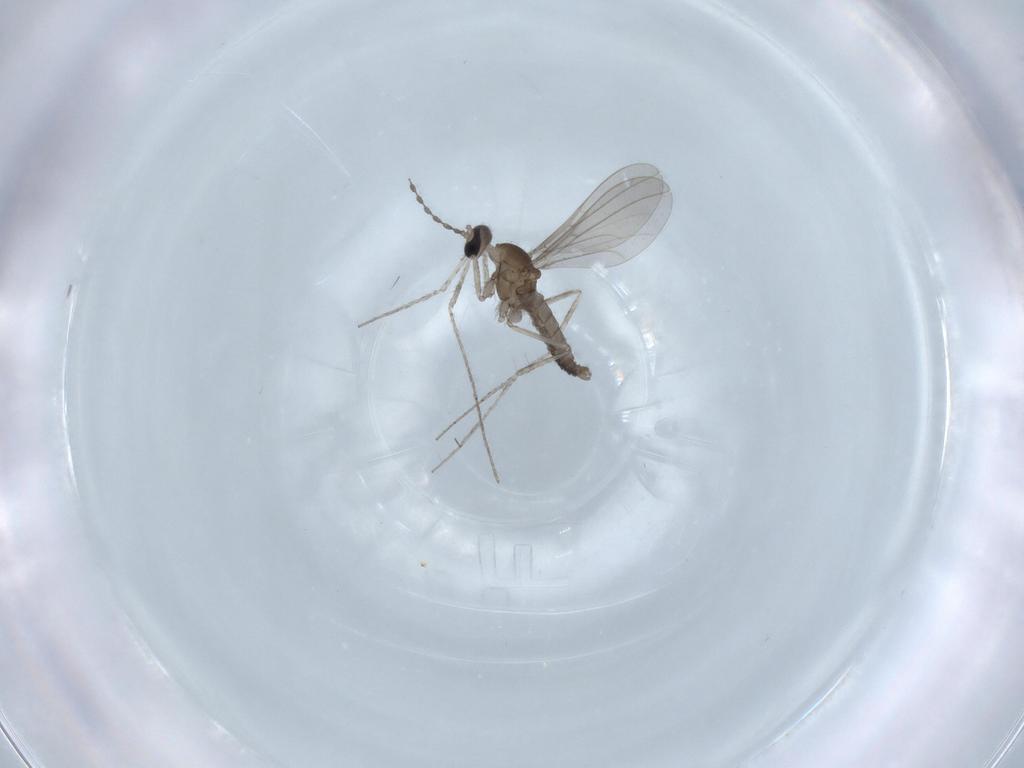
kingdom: Animalia
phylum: Arthropoda
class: Insecta
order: Diptera
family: Cecidomyiidae
